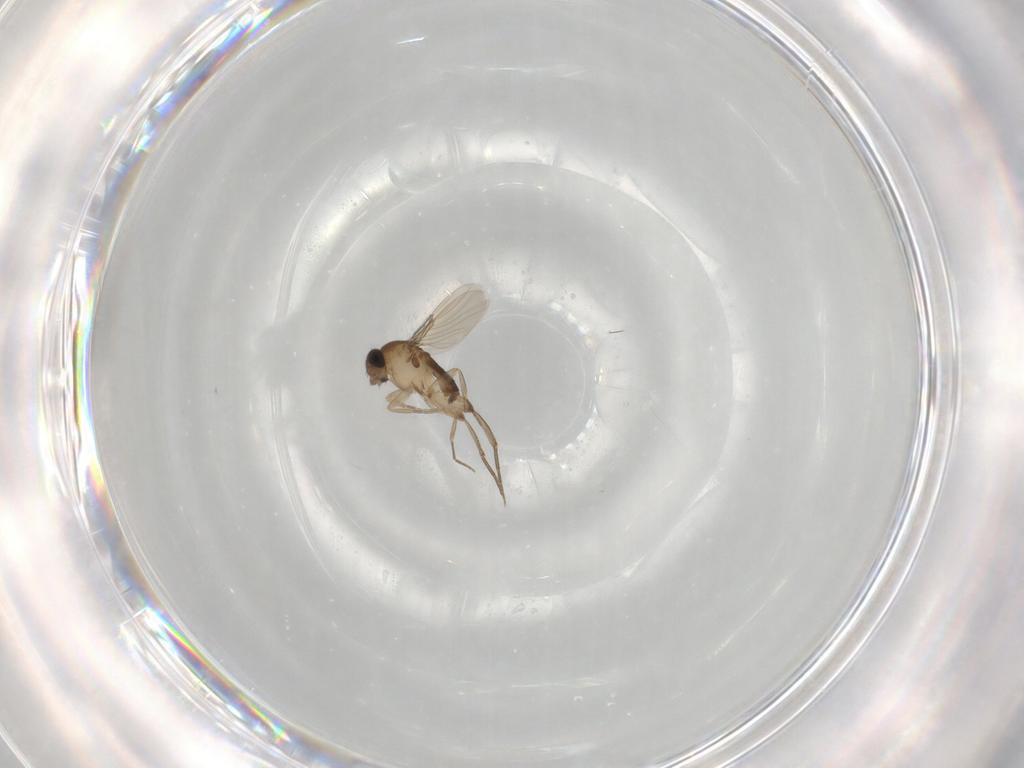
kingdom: Animalia
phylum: Arthropoda
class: Insecta
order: Diptera
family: Phoridae
